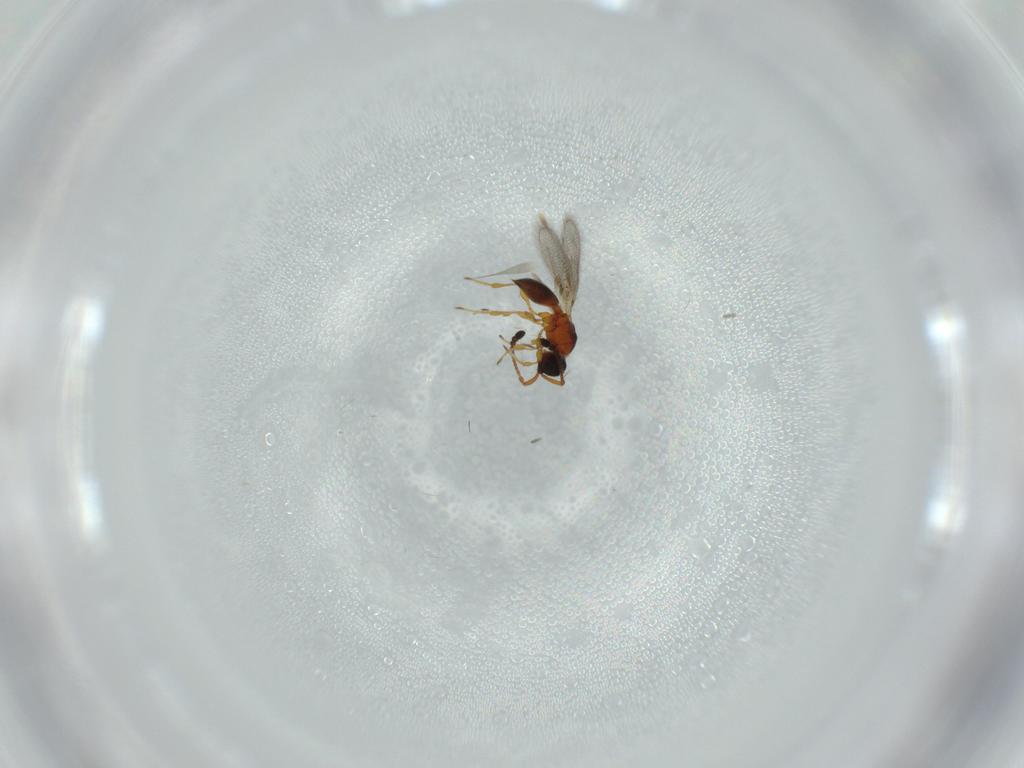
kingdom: Animalia
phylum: Arthropoda
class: Insecta
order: Hymenoptera
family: Diapriidae
